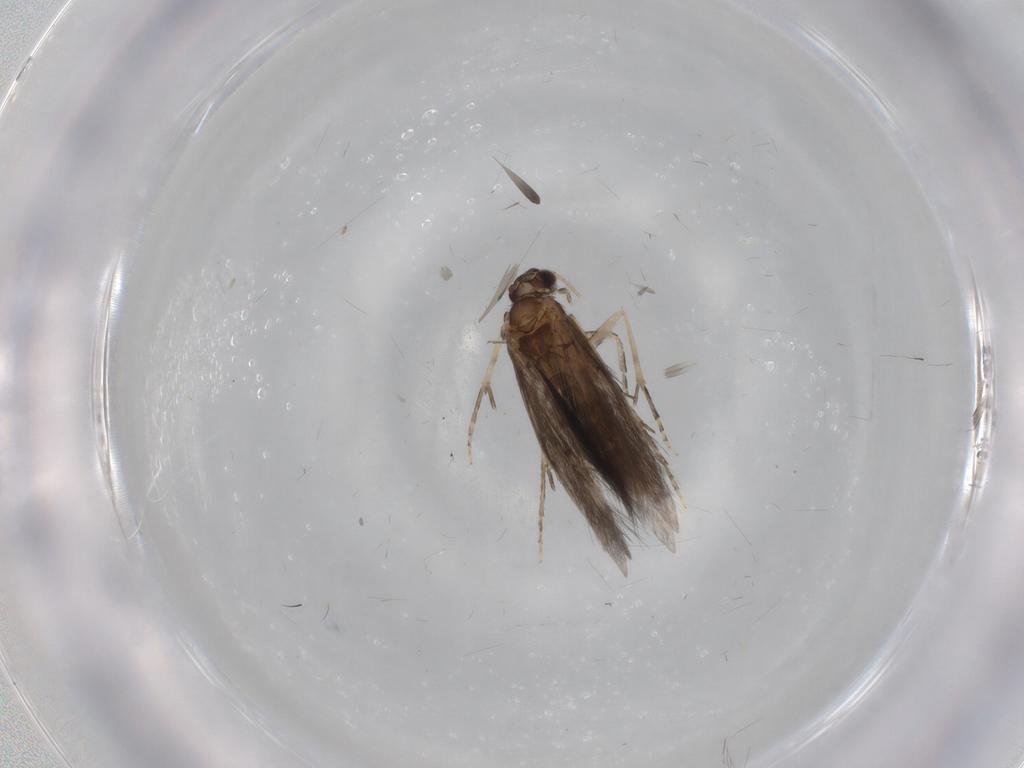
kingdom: Animalia
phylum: Arthropoda
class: Insecta
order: Trichoptera
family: Hydroptilidae
